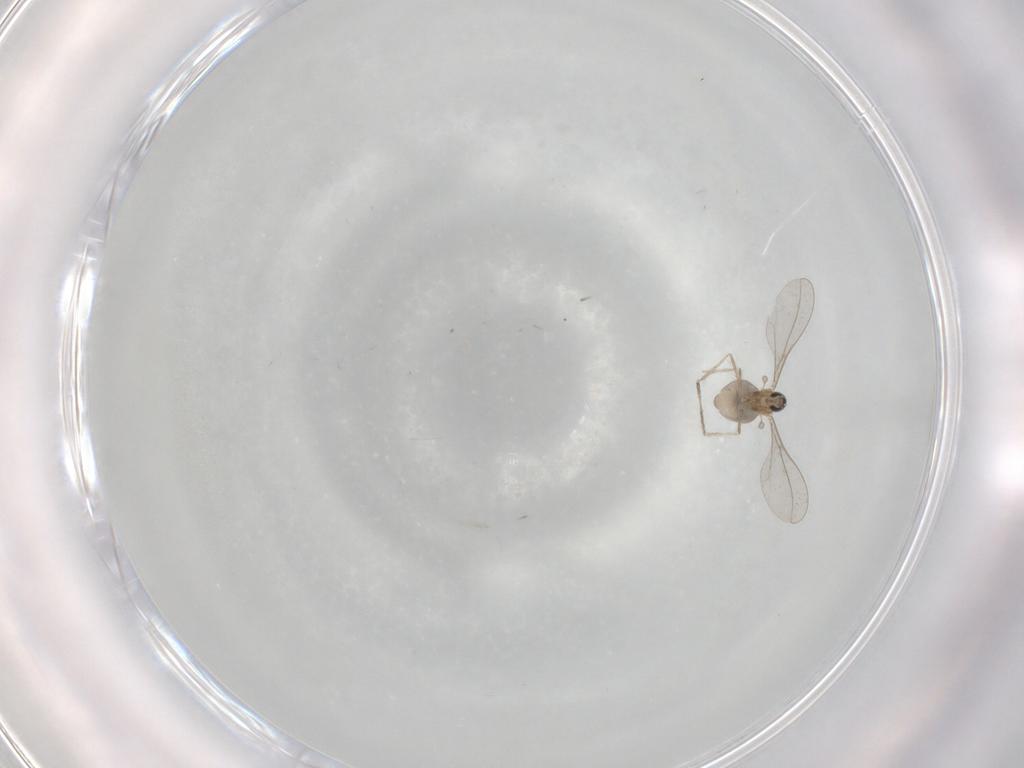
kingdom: Animalia
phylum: Arthropoda
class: Insecta
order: Diptera
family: Cecidomyiidae
